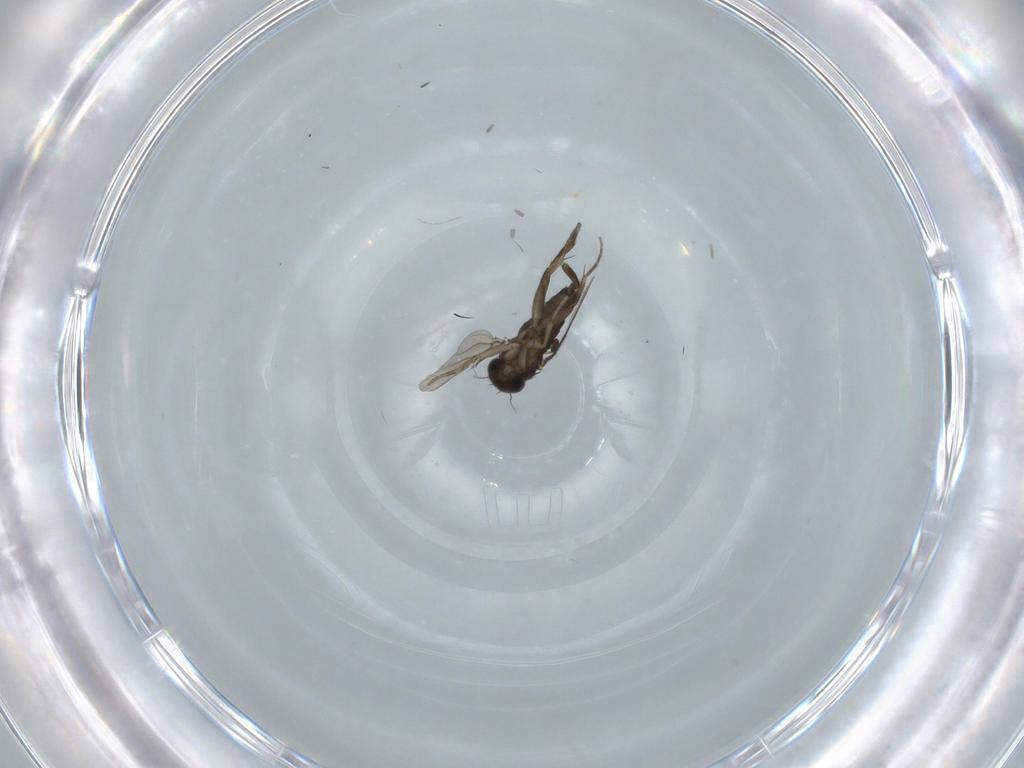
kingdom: Animalia
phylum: Arthropoda
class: Insecta
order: Diptera
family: Phoridae
